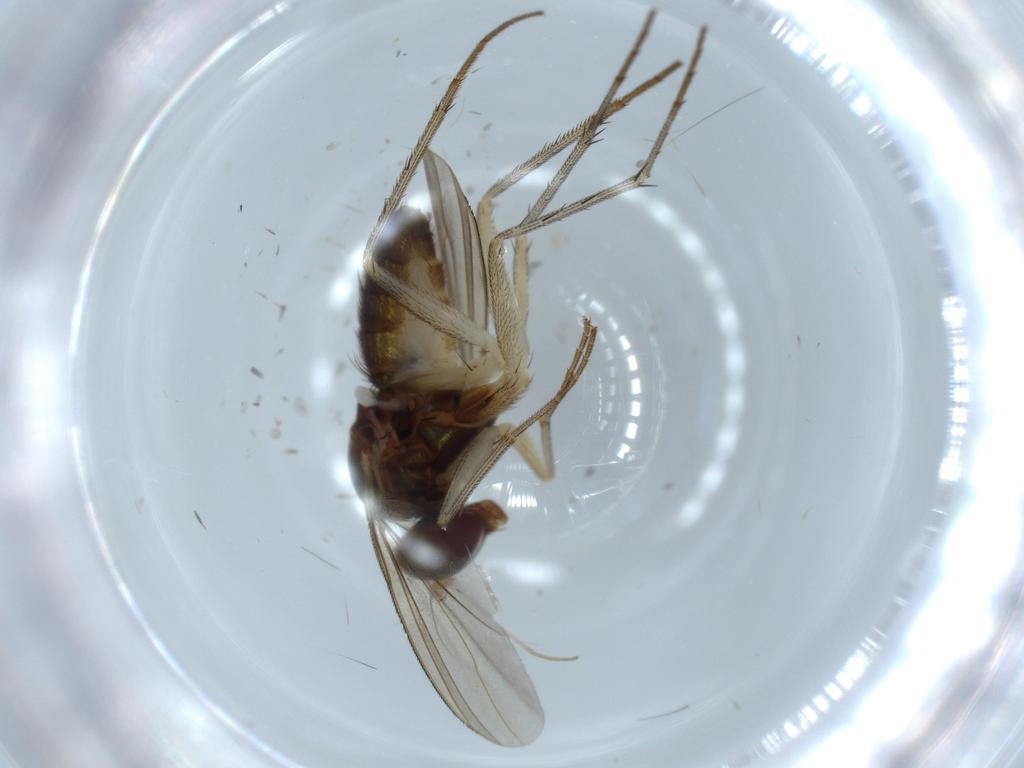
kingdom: Animalia
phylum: Arthropoda
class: Insecta
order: Diptera
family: Dolichopodidae
